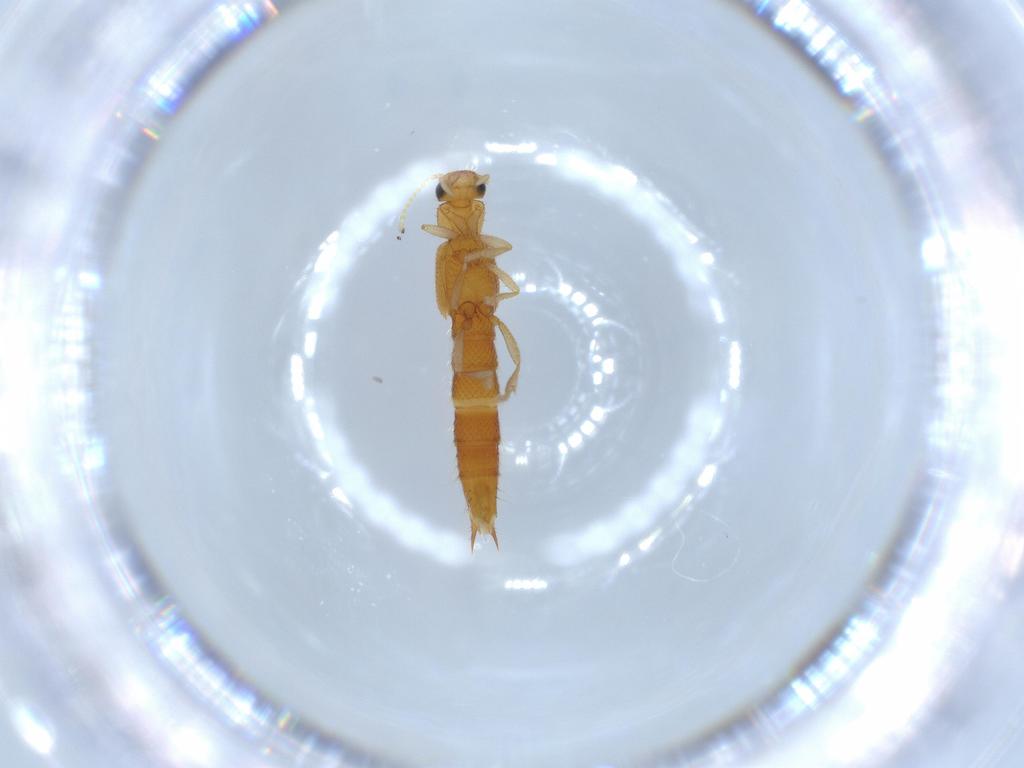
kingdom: Animalia
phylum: Arthropoda
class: Insecta
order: Coleoptera
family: Staphylinidae
